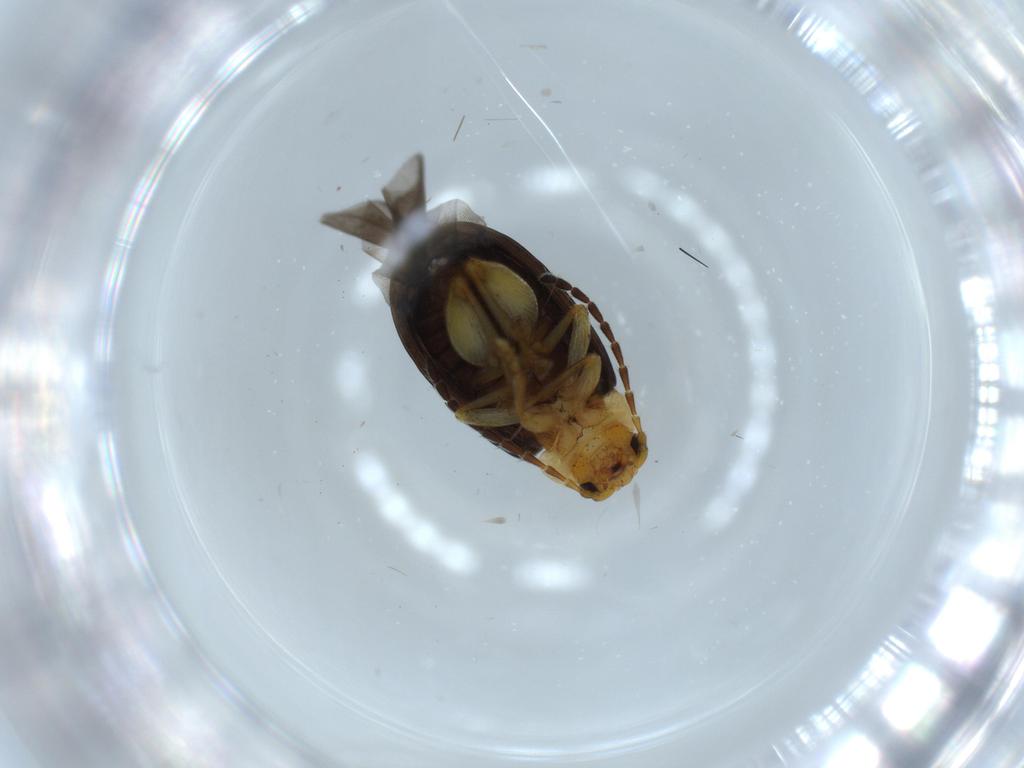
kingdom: Animalia
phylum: Arthropoda
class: Insecta
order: Coleoptera
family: Chrysomelidae
